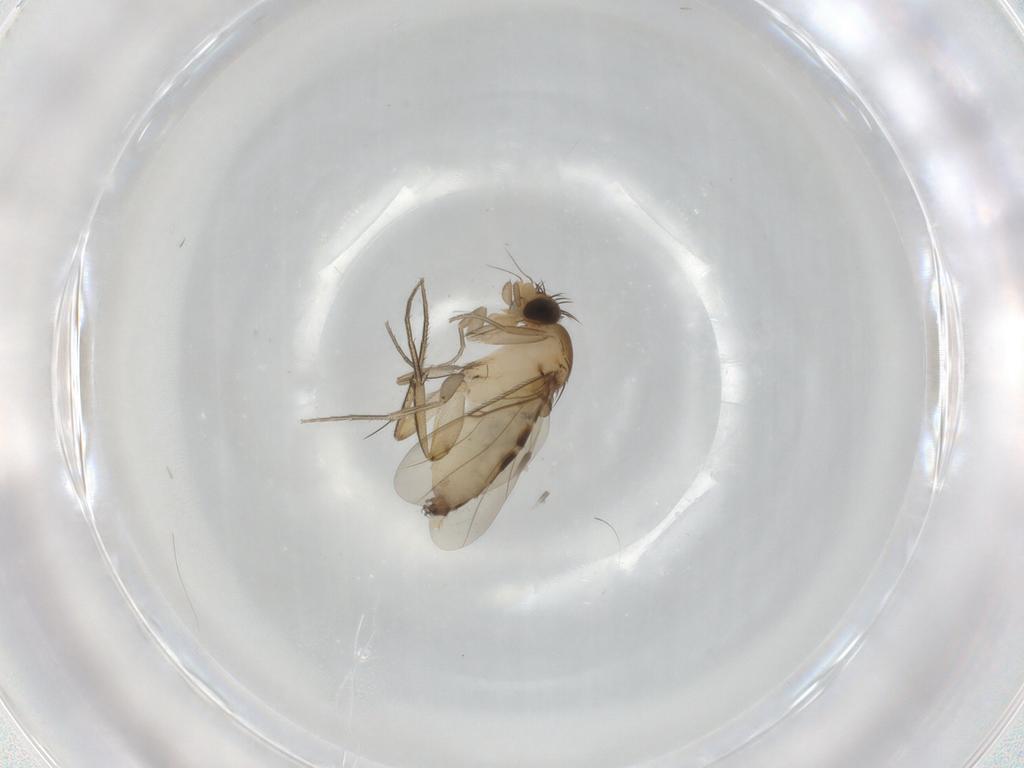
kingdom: Animalia
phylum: Arthropoda
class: Insecta
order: Diptera
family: Phoridae
